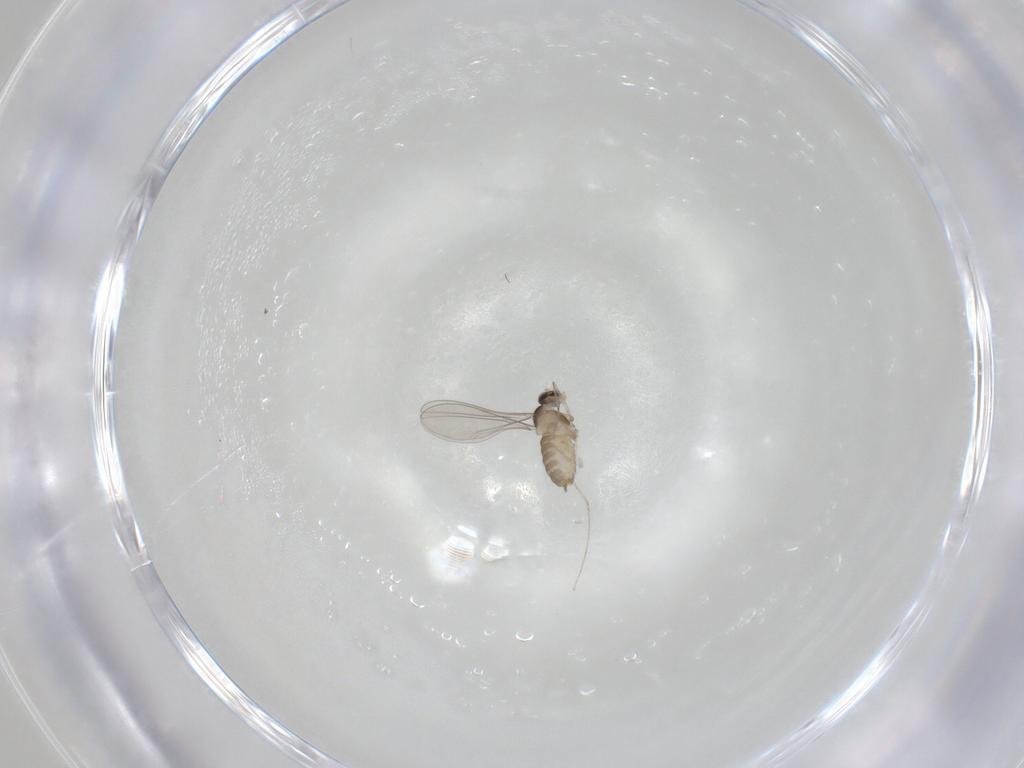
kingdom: Animalia
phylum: Arthropoda
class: Insecta
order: Diptera
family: Cecidomyiidae
